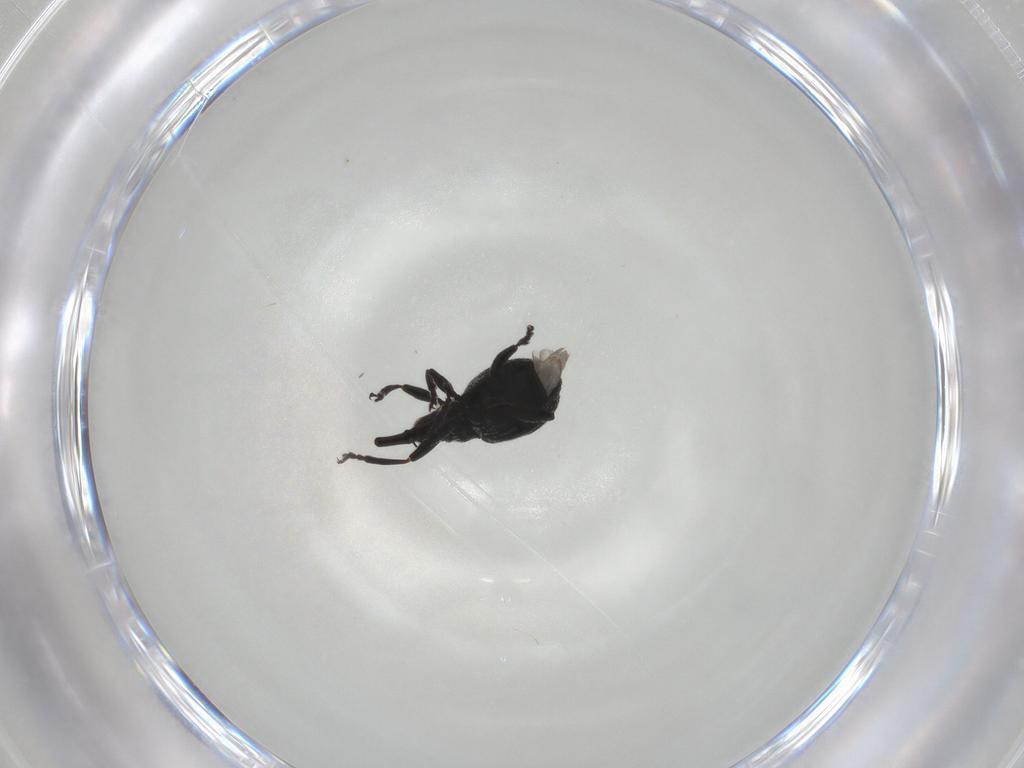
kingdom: Animalia
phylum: Arthropoda
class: Insecta
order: Coleoptera
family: Brentidae
